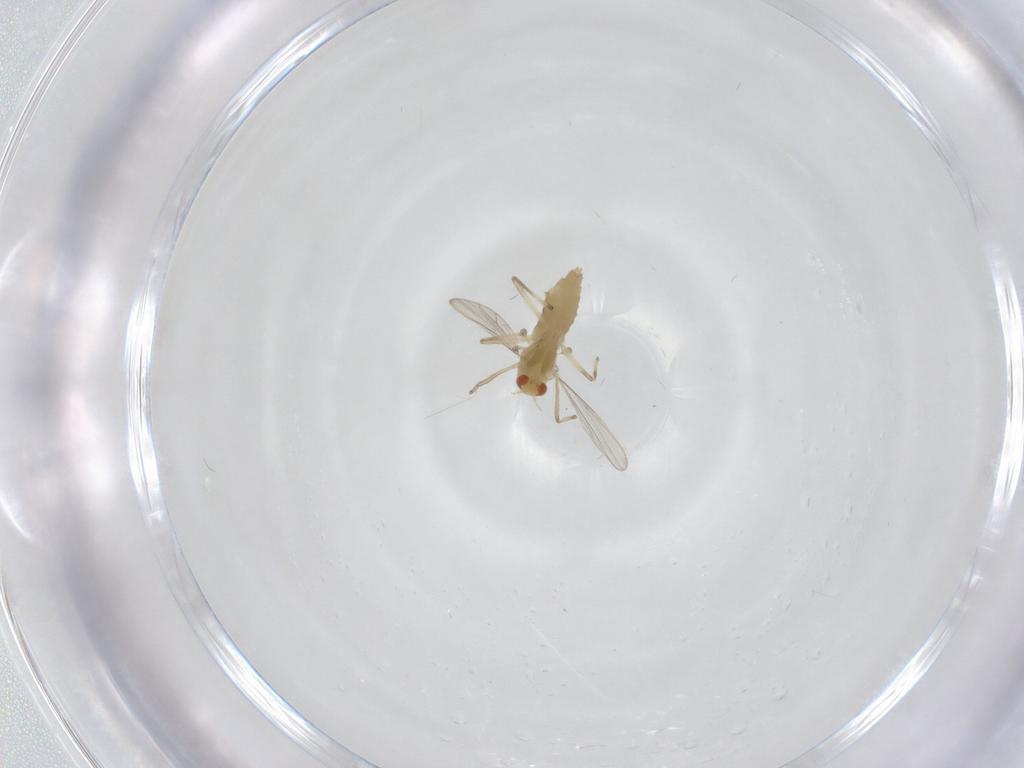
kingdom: Animalia
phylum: Arthropoda
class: Insecta
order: Diptera
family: Chironomidae
